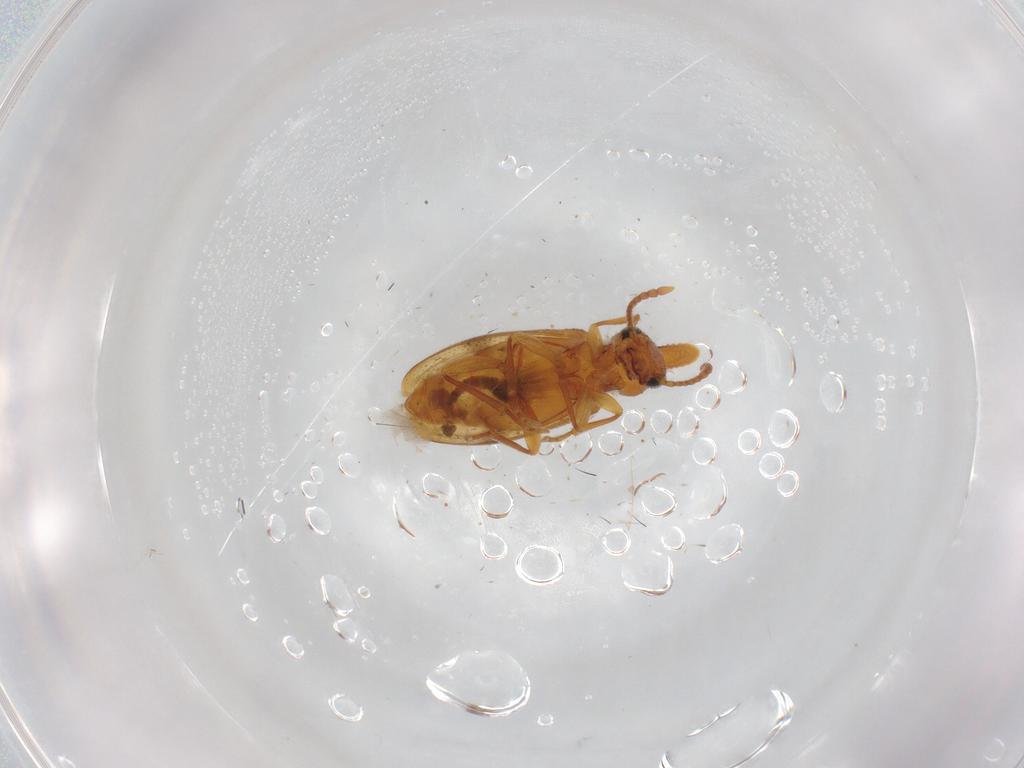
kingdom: Animalia
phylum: Arthropoda
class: Insecta
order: Coleoptera
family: Anthicidae
